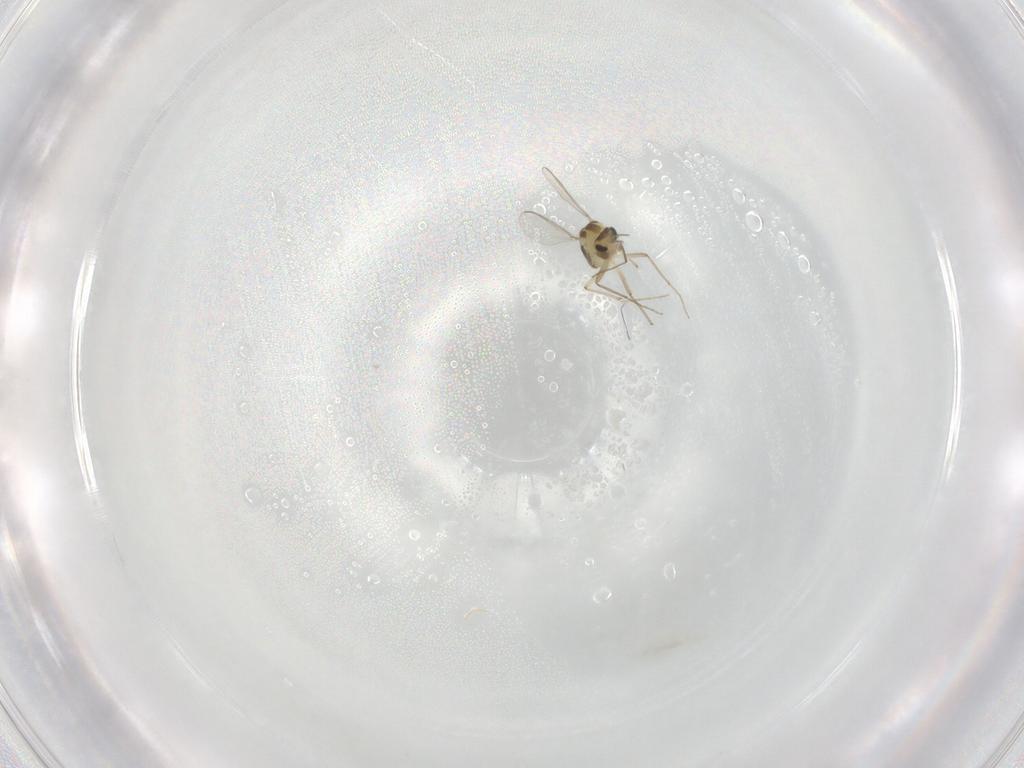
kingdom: Animalia
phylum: Arthropoda
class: Insecta
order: Diptera
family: Chironomidae
